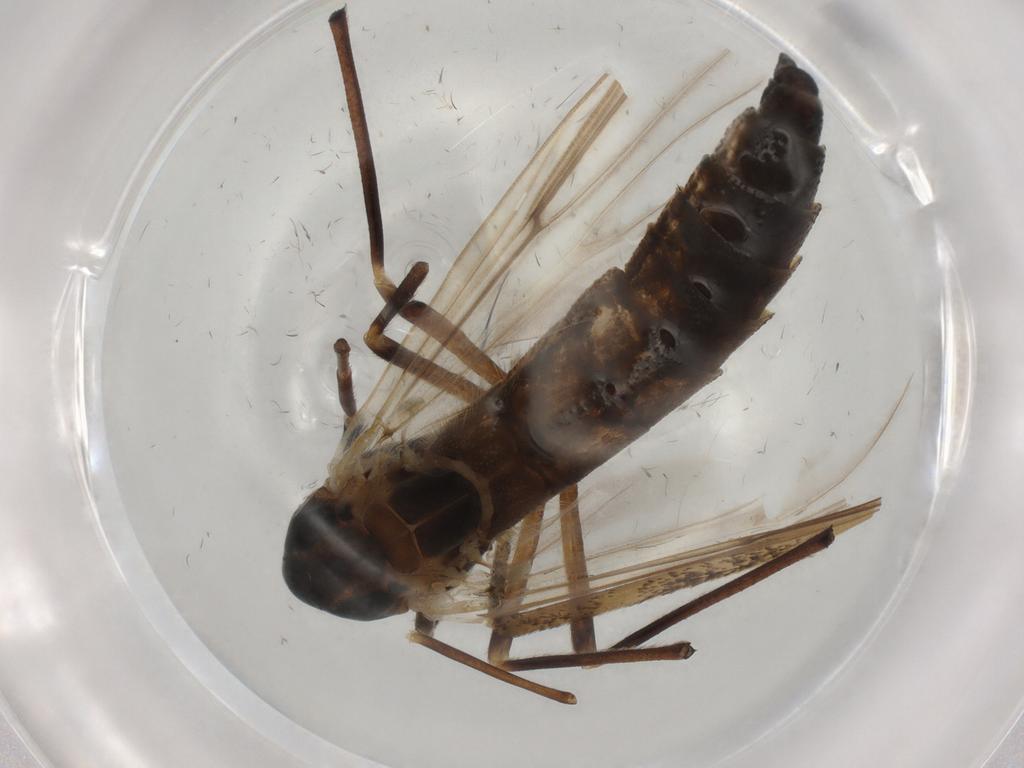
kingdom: Animalia
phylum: Arthropoda
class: Insecta
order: Diptera
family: Chironomidae
